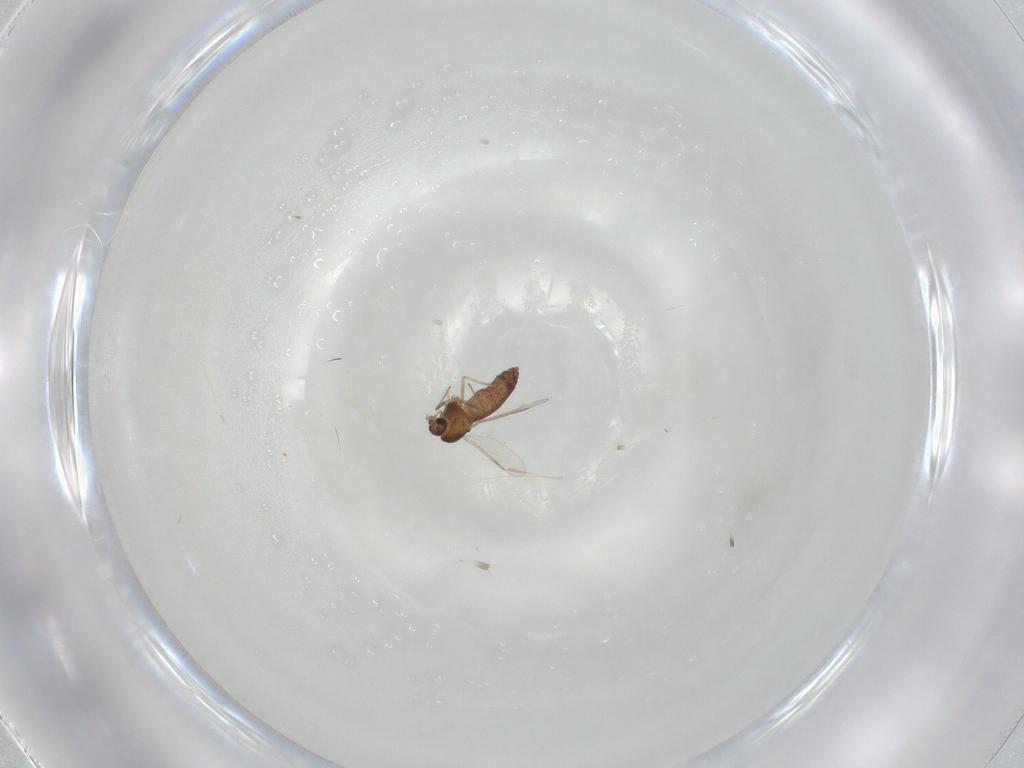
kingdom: Animalia
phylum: Arthropoda
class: Insecta
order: Diptera
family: Chironomidae
